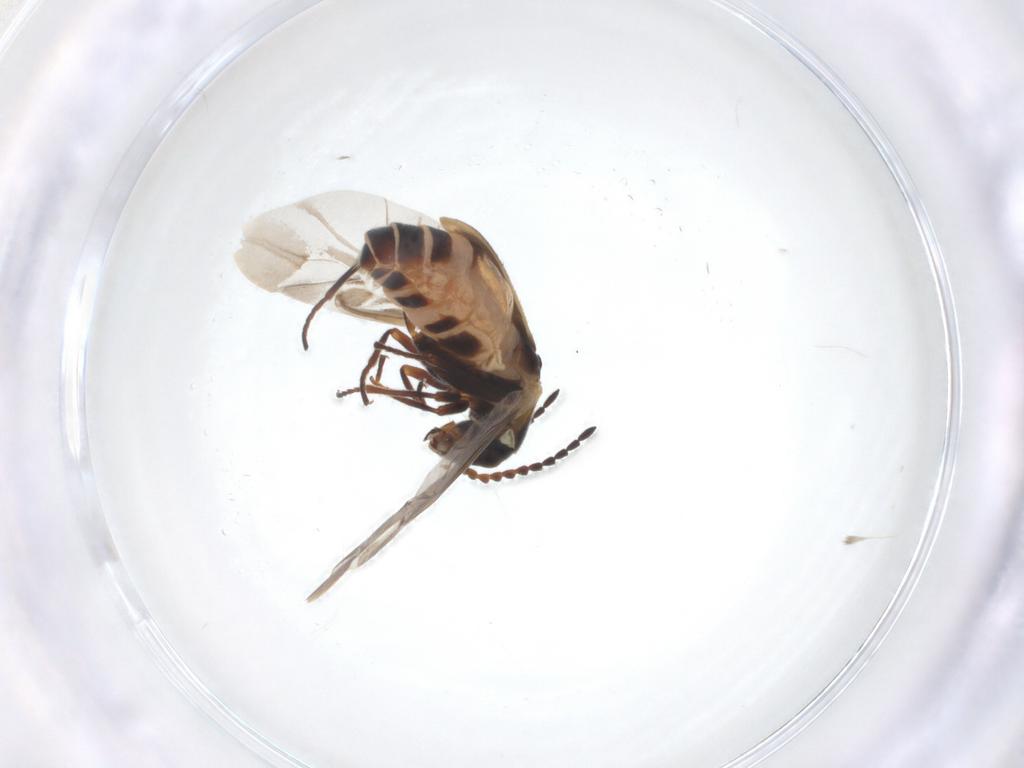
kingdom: Animalia
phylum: Arthropoda
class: Insecta
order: Coleoptera
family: Melyridae
